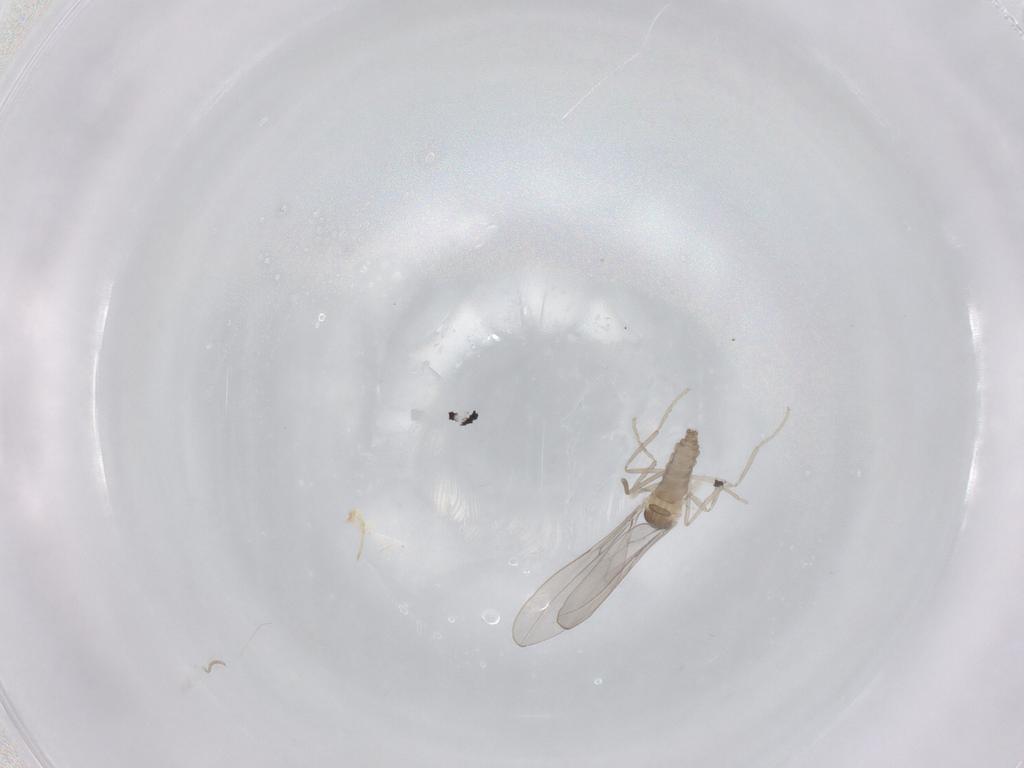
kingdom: Animalia
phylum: Arthropoda
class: Insecta
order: Diptera
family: Cecidomyiidae
